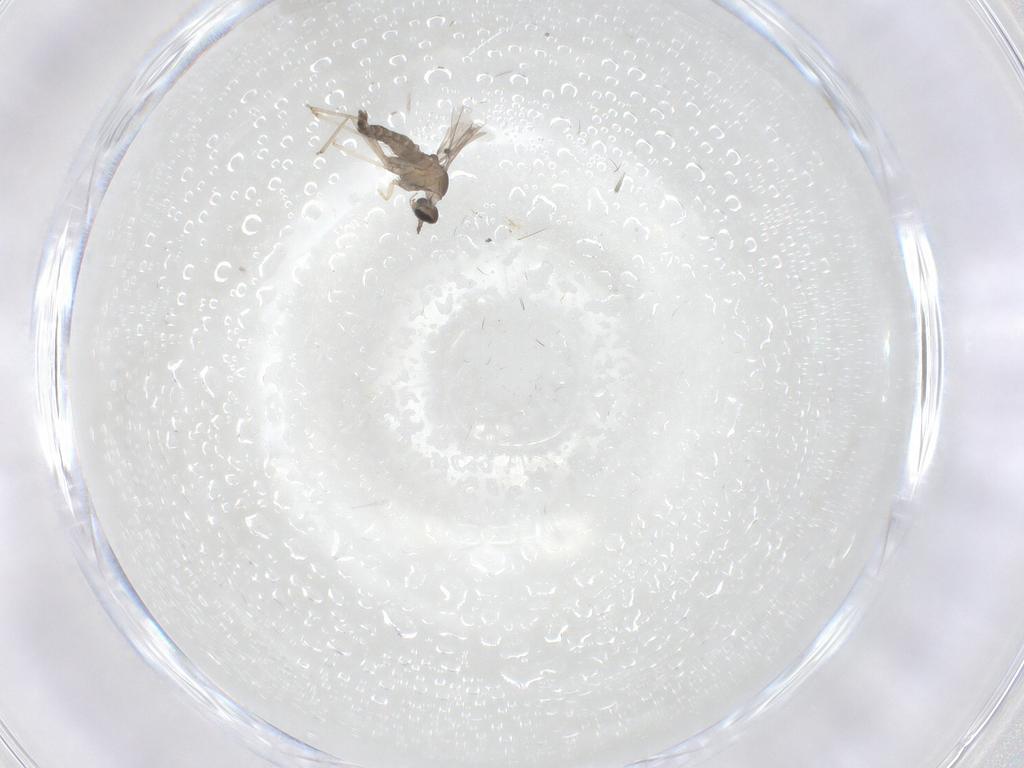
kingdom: Animalia
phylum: Arthropoda
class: Insecta
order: Diptera
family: Cecidomyiidae
